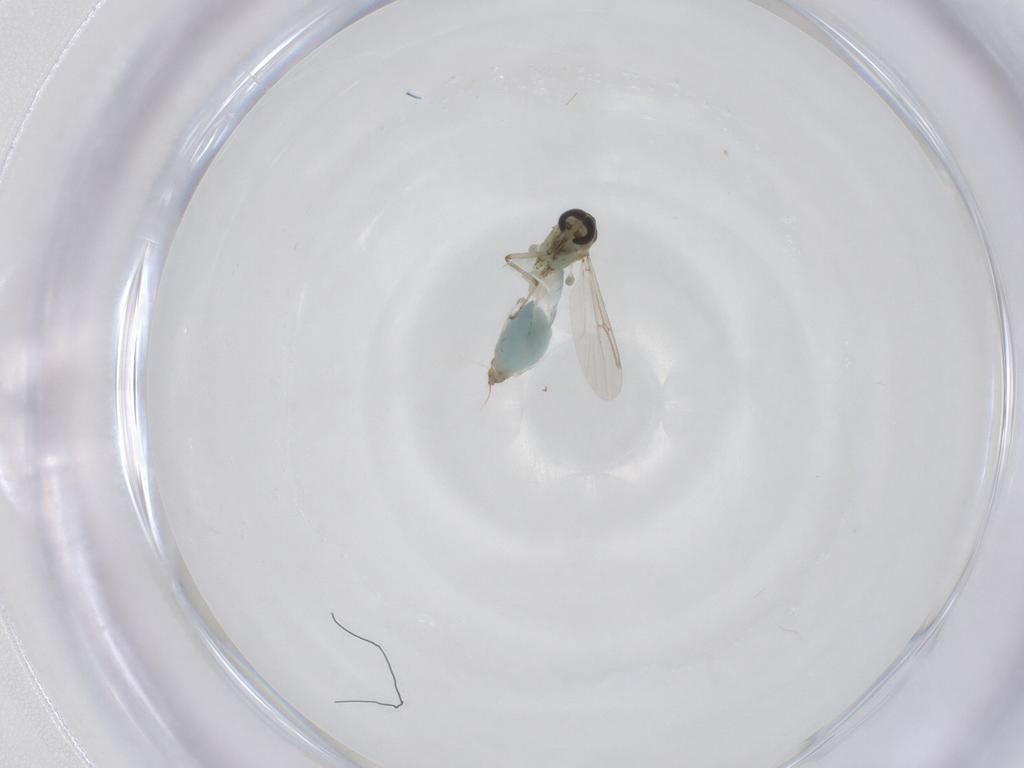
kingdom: Animalia
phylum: Arthropoda
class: Insecta
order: Diptera
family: Ceratopogonidae
